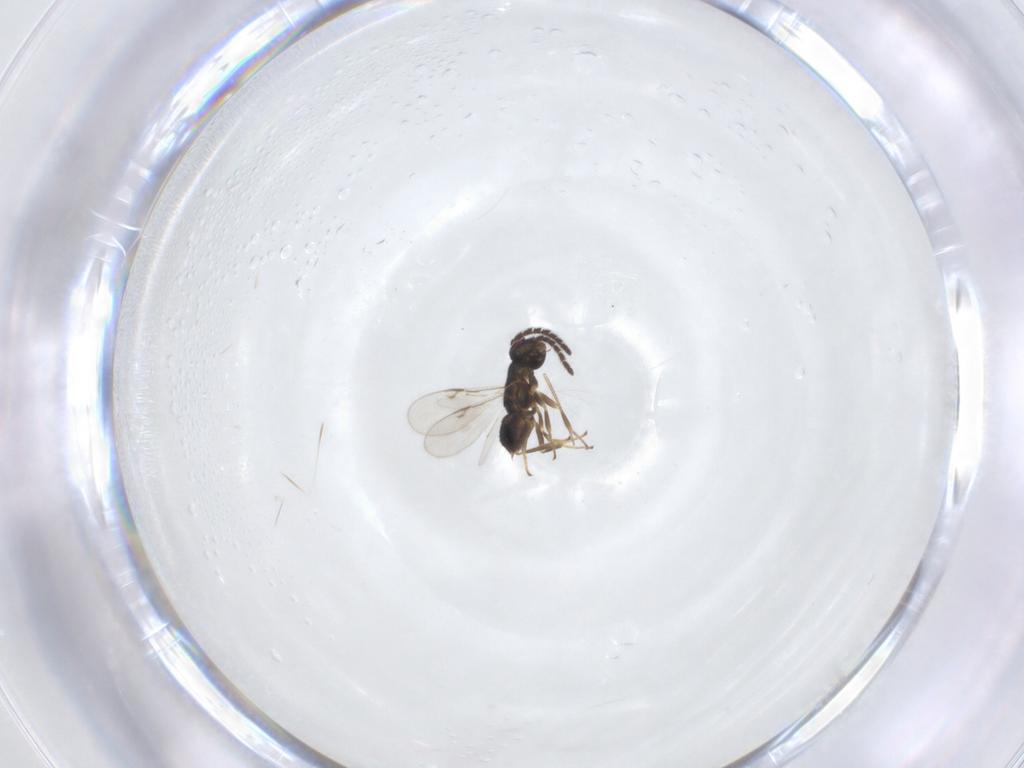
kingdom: Animalia
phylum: Arthropoda
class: Insecta
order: Hymenoptera
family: Encyrtidae
